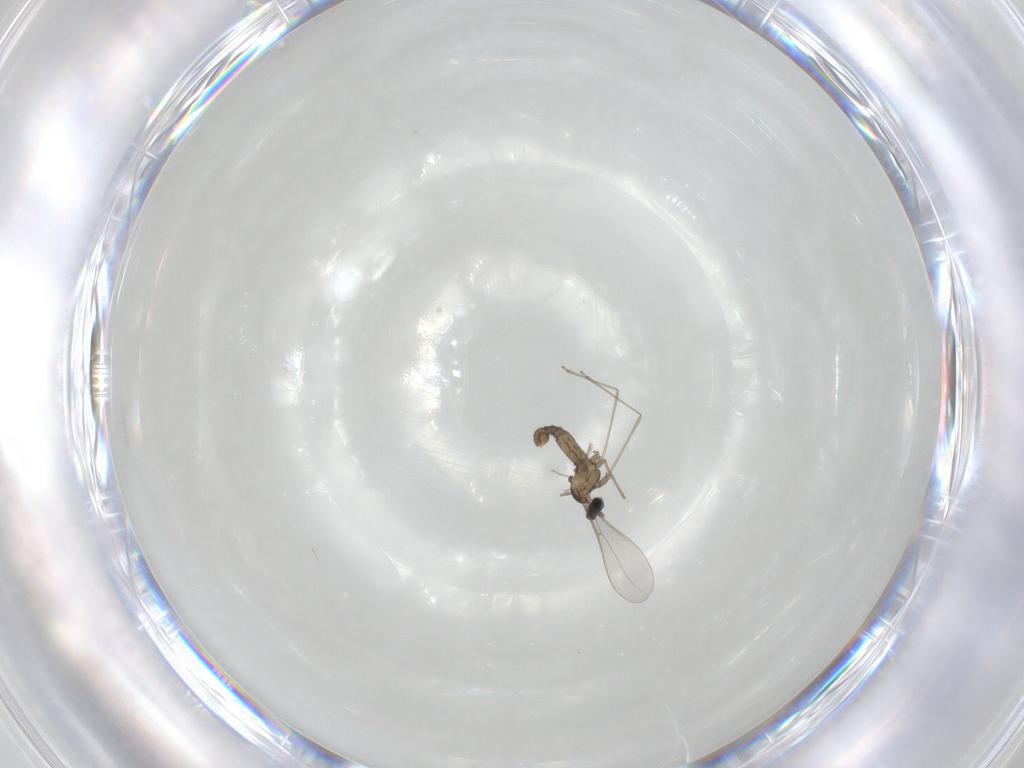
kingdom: Animalia
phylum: Arthropoda
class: Insecta
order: Diptera
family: Cecidomyiidae
